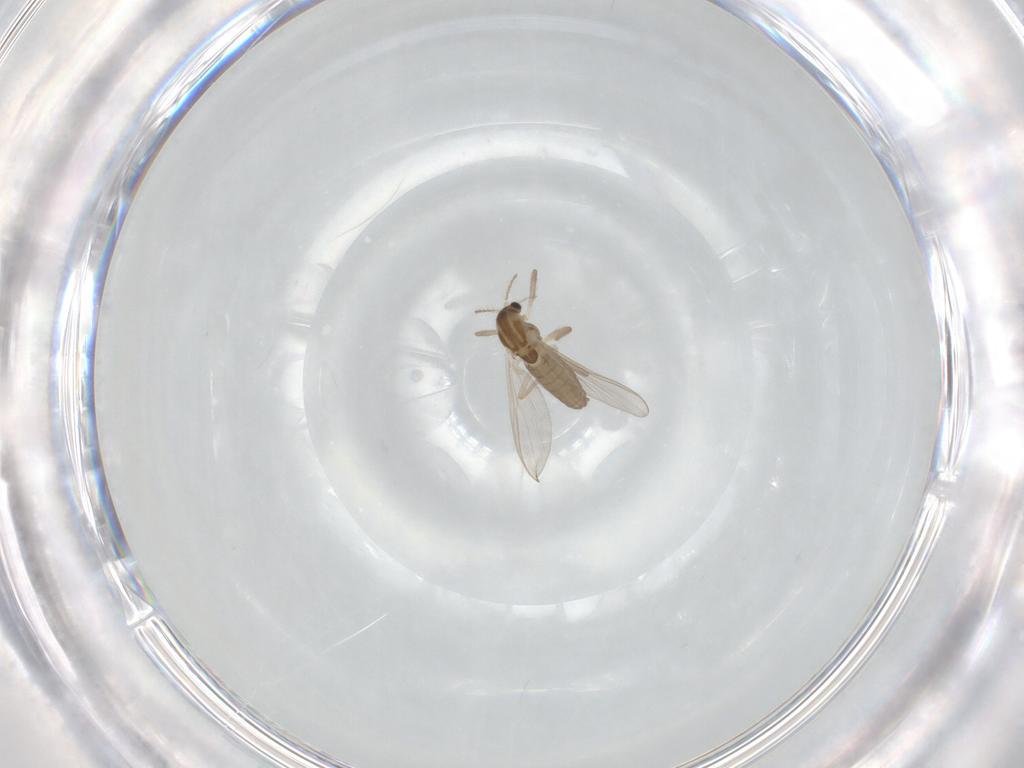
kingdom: Animalia
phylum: Arthropoda
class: Insecta
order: Diptera
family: Chironomidae
